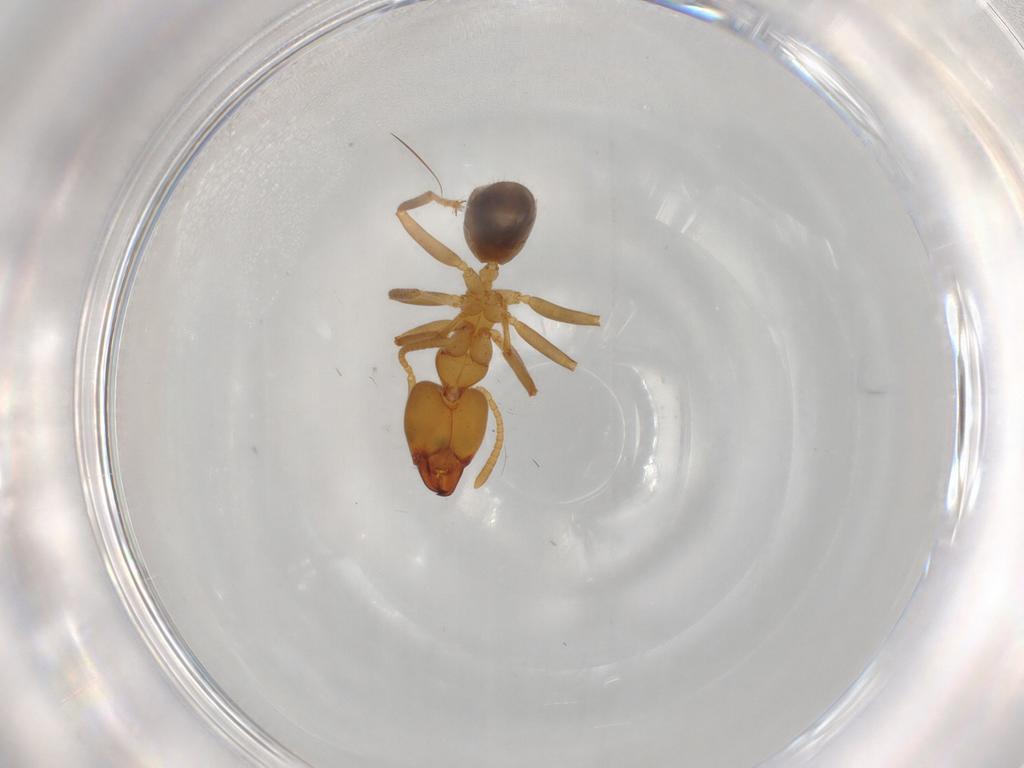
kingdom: Animalia
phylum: Arthropoda
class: Insecta
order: Hymenoptera
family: Formicidae
